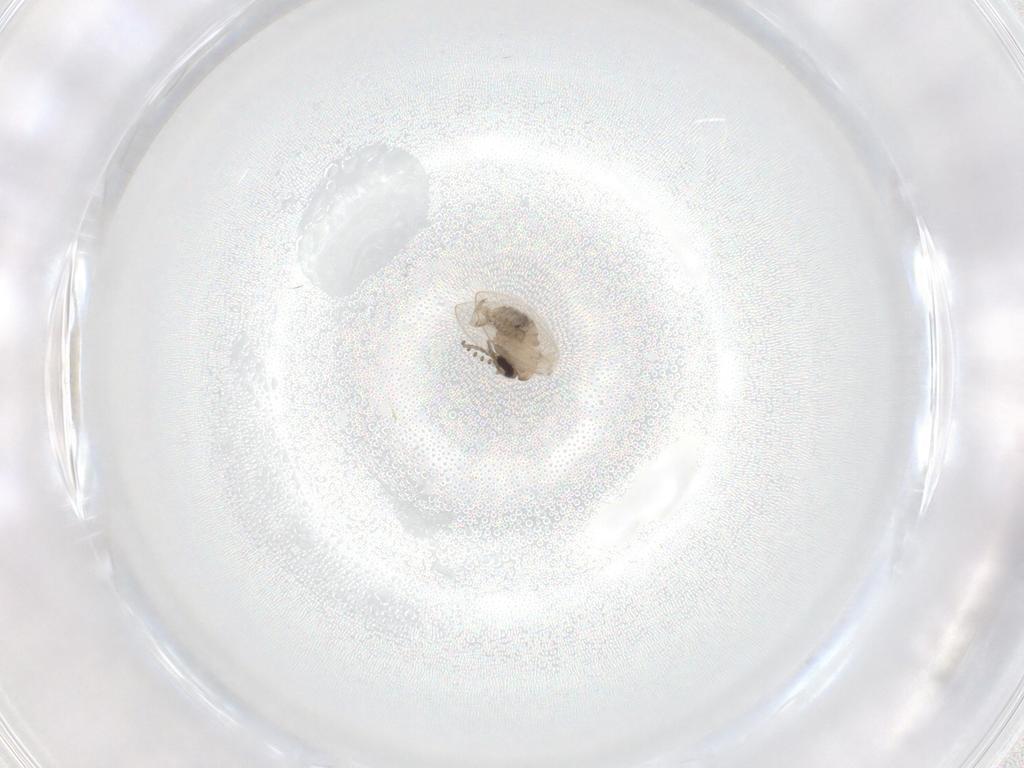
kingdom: Animalia
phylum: Arthropoda
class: Insecta
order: Diptera
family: Psychodidae
